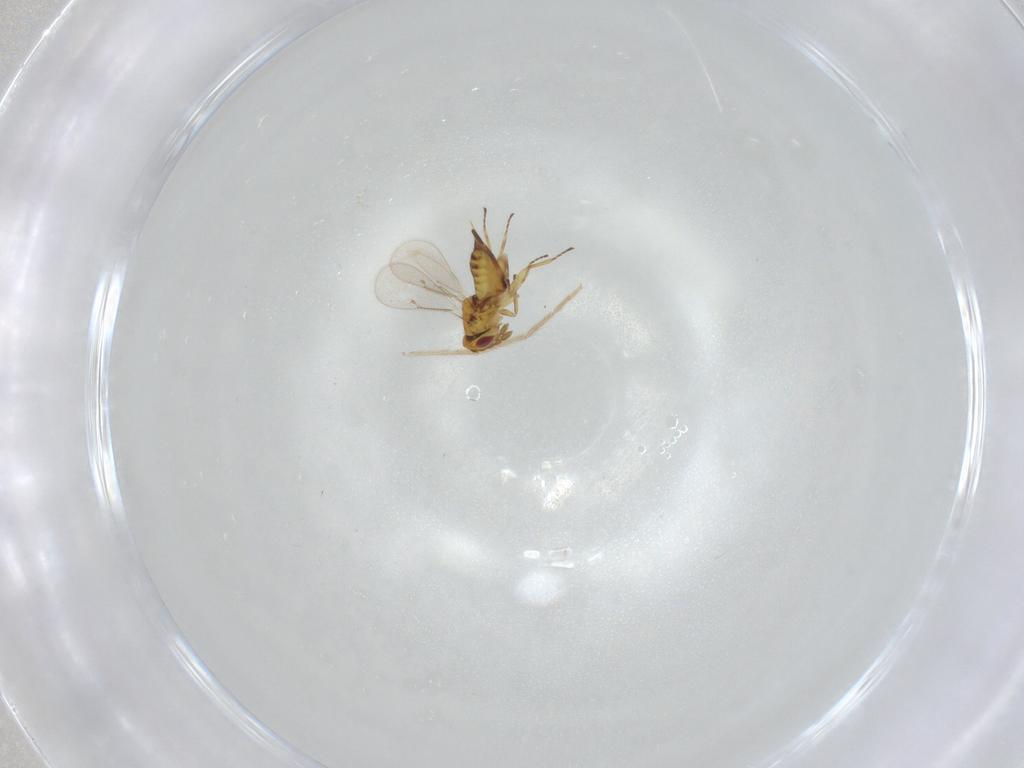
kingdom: Animalia
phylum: Arthropoda
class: Insecta
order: Hymenoptera
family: Eulophidae
